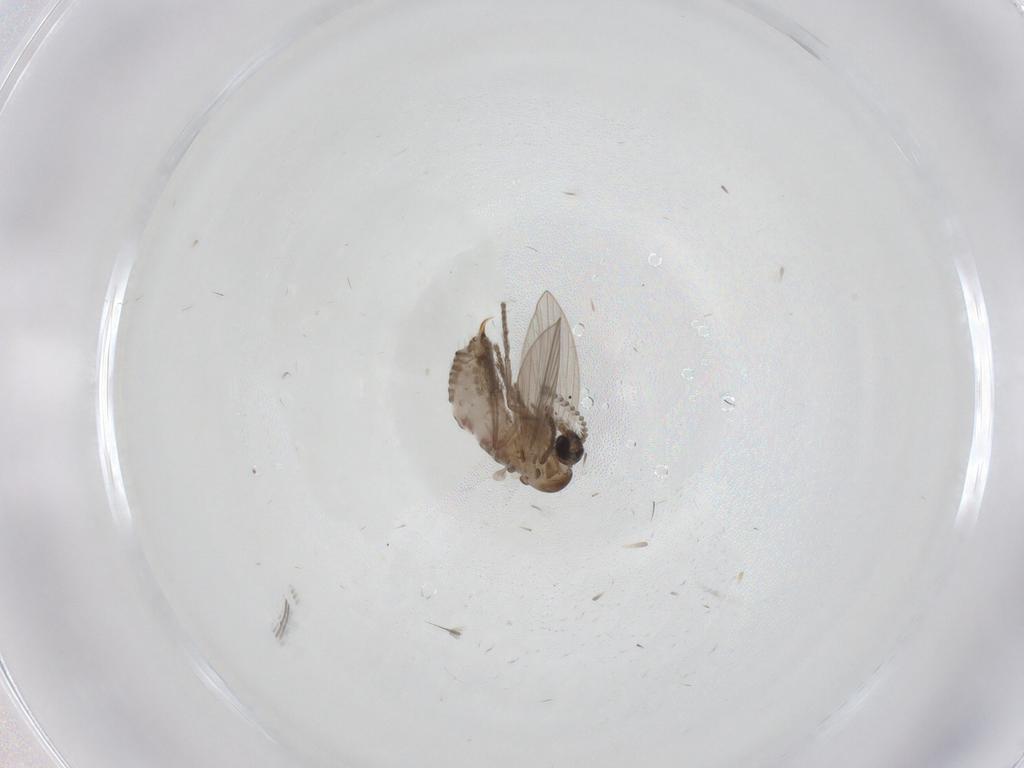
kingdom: Animalia
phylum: Arthropoda
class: Insecta
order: Diptera
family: Psychodidae
